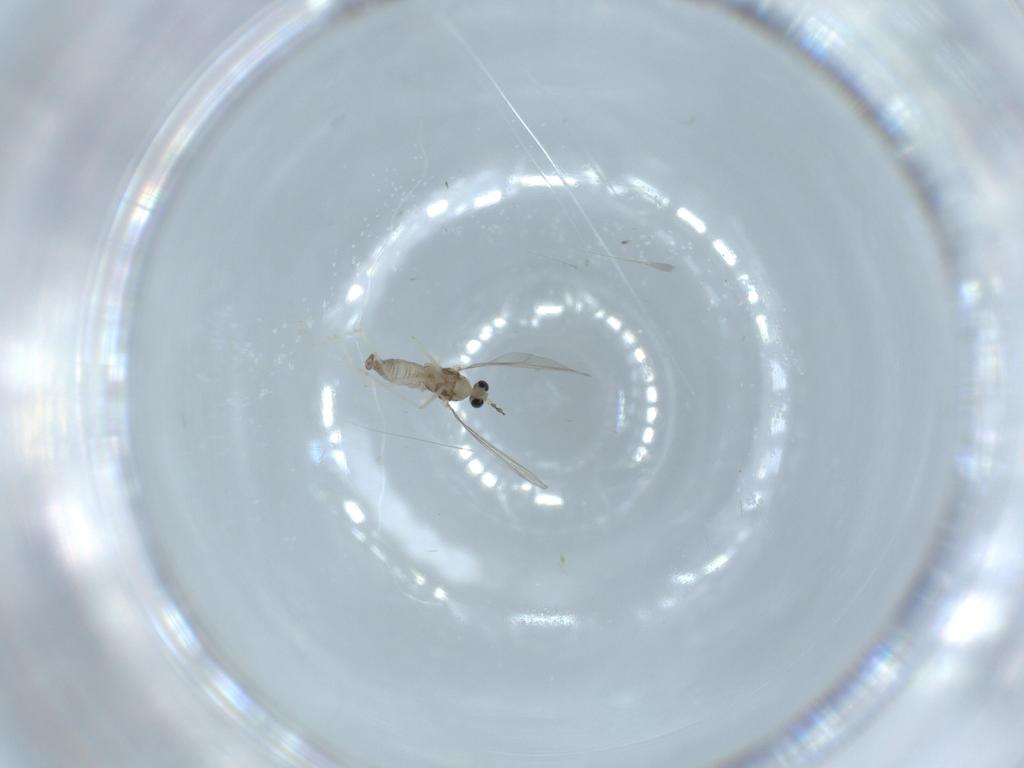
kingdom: Animalia
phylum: Arthropoda
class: Insecta
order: Diptera
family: Cecidomyiidae
